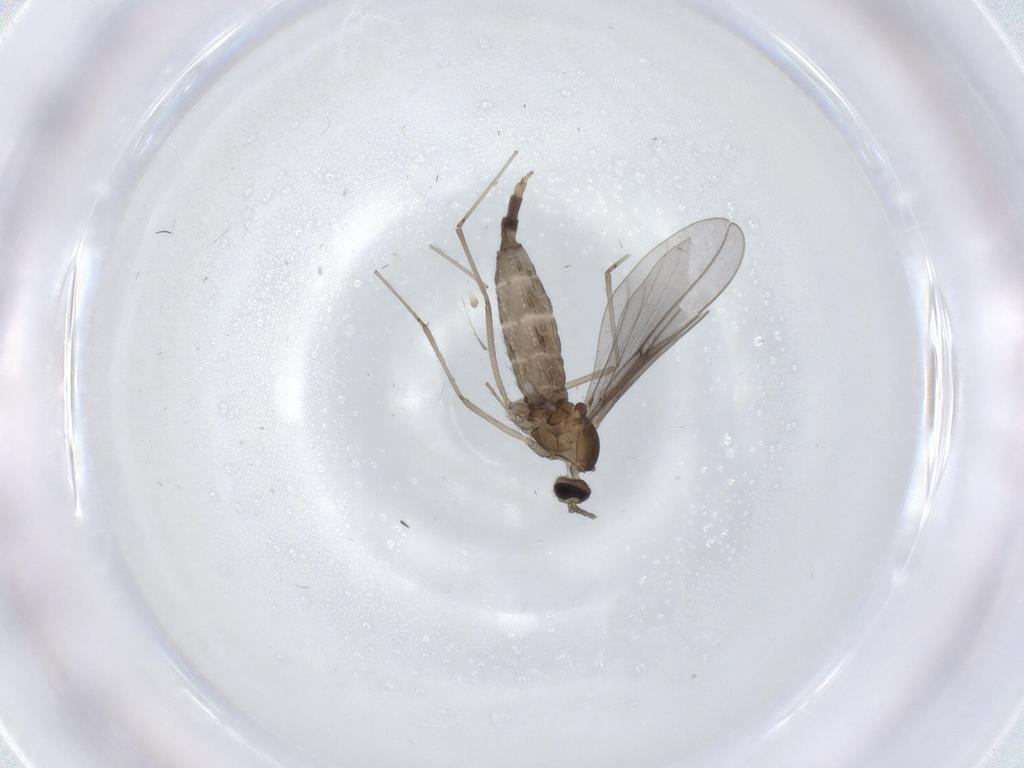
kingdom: Animalia
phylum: Arthropoda
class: Insecta
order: Diptera
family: Cecidomyiidae
